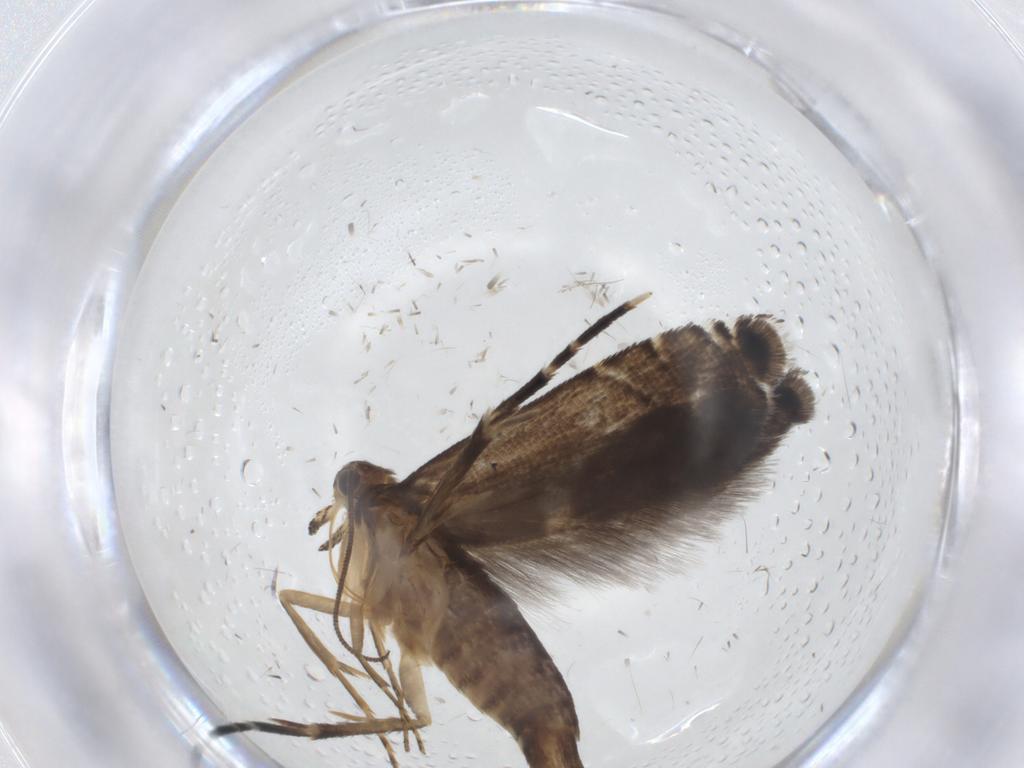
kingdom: Animalia
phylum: Arthropoda
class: Insecta
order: Lepidoptera
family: Glyphipterigidae
